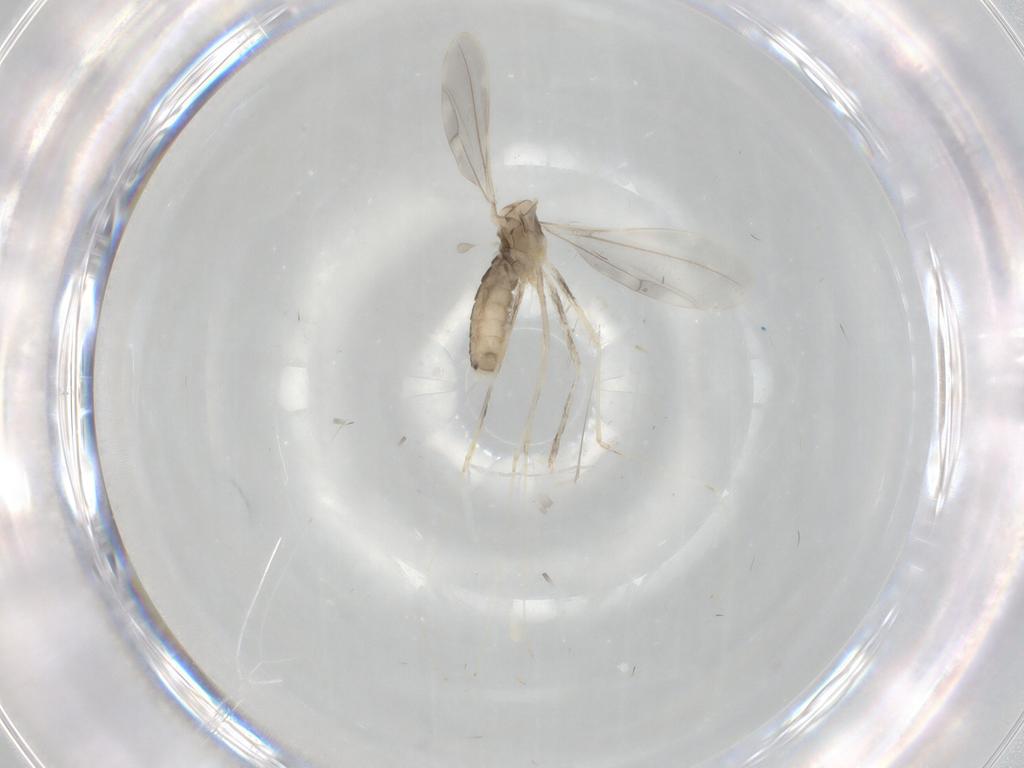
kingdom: Animalia
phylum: Arthropoda
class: Insecta
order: Diptera
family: Cecidomyiidae
